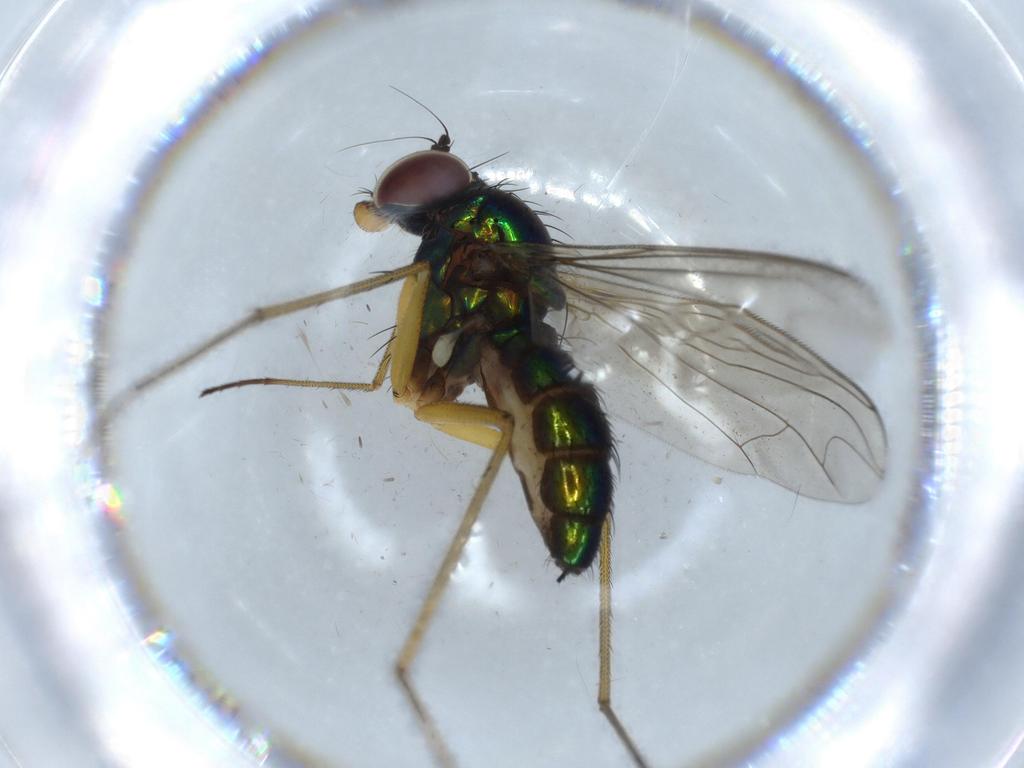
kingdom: Animalia
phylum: Arthropoda
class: Insecta
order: Diptera
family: Dolichopodidae
